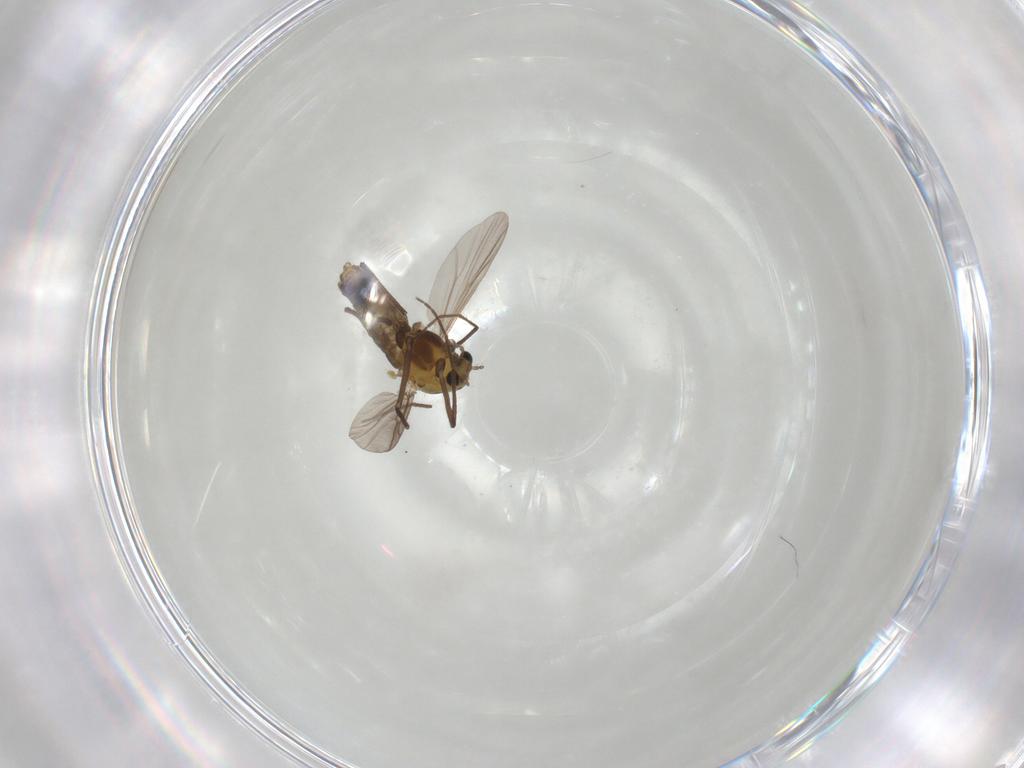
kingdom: Animalia
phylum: Arthropoda
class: Insecta
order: Diptera
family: Chironomidae
